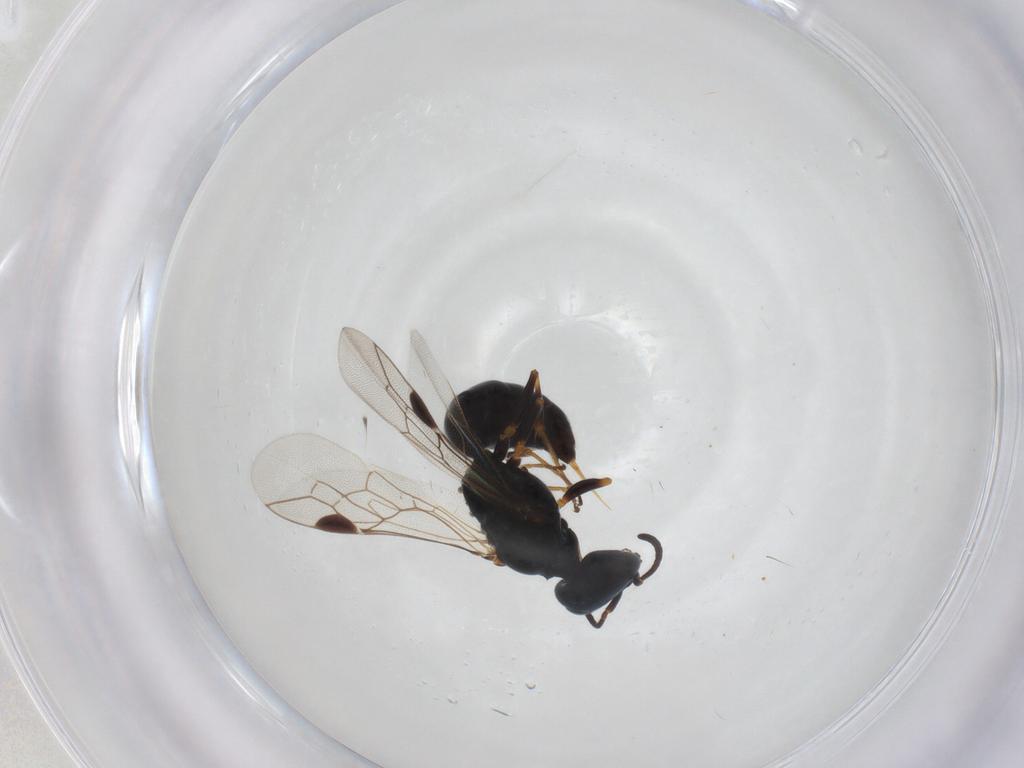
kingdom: Animalia
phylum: Arthropoda
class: Insecta
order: Hymenoptera
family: Crabronidae
